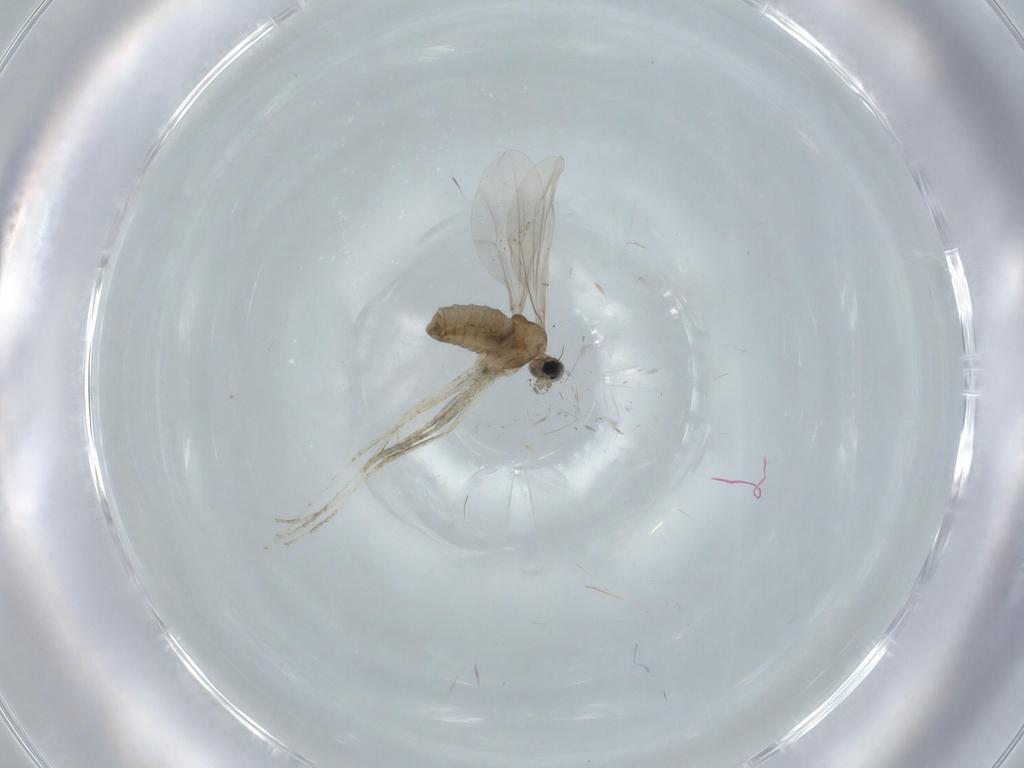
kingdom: Animalia
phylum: Arthropoda
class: Insecta
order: Diptera
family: Cecidomyiidae
